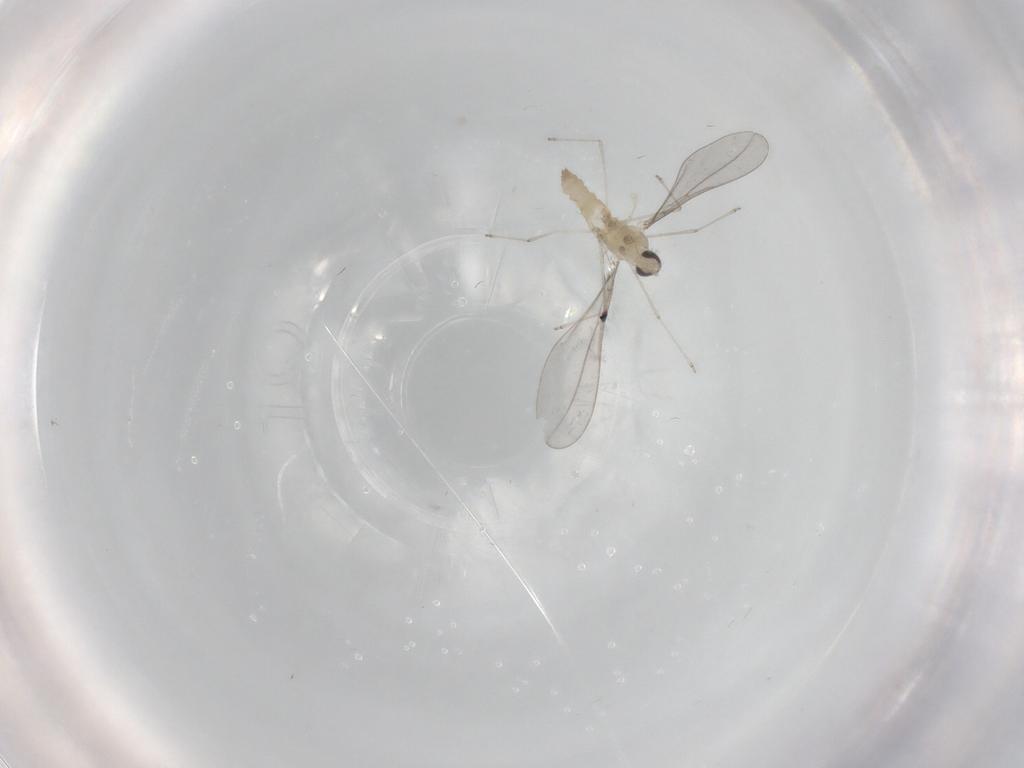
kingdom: Animalia
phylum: Arthropoda
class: Insecta
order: Diptera
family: Cecidomyiidae
